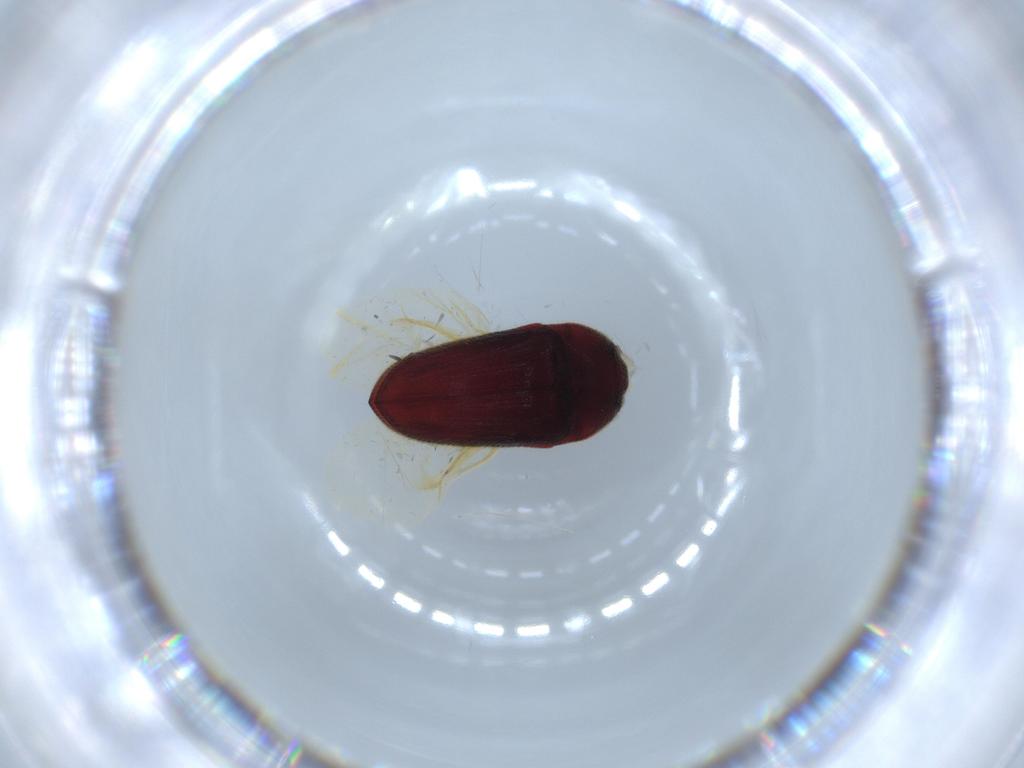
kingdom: Animalia
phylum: Arthropoda
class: Insecta
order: Coleoptera
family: Throscidae
